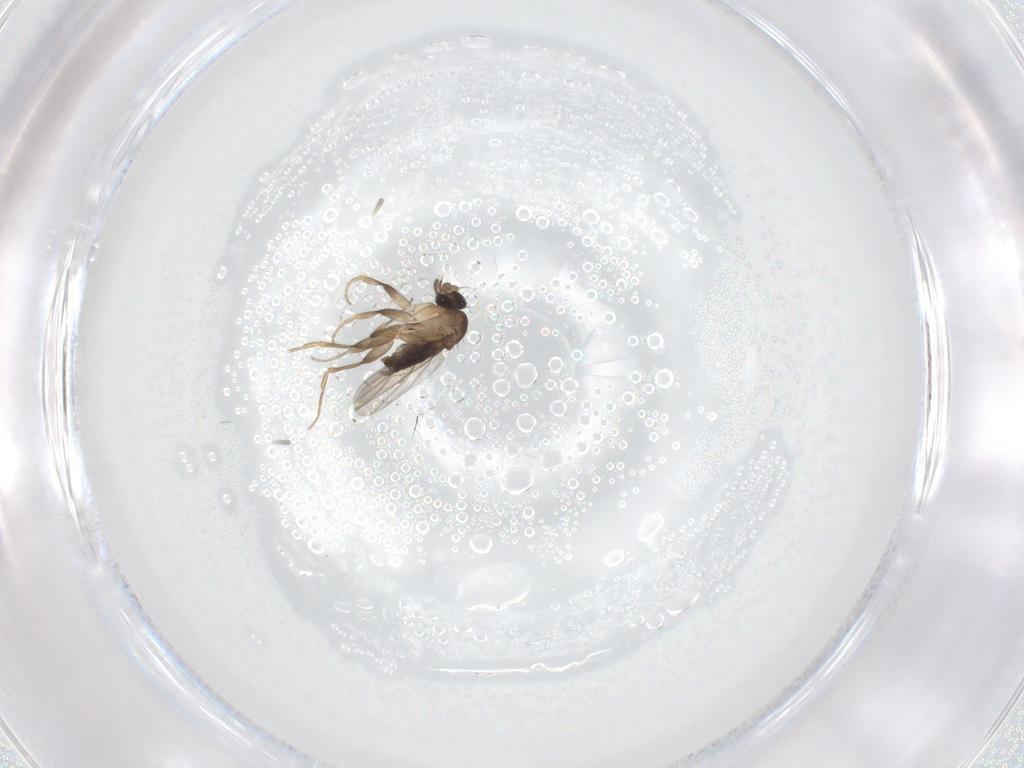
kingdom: Animalia
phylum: Arthropoda
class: Insecta
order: Diptera
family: Phoridae
